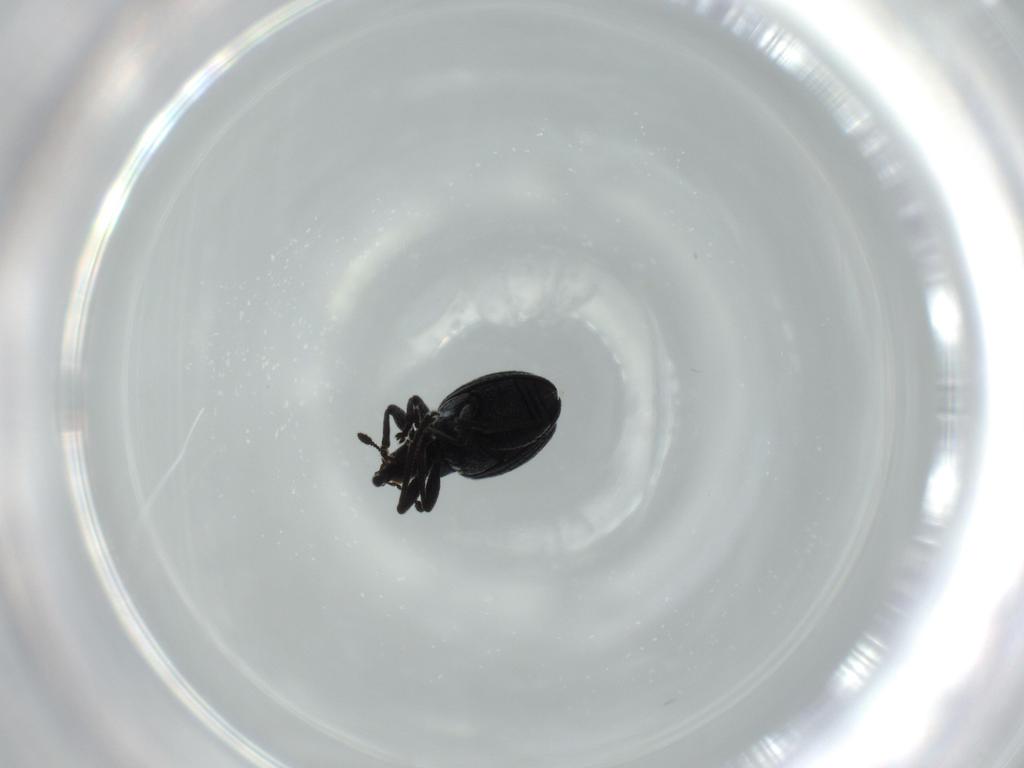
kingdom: Animalia
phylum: Arthropoda
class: Insecta
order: Coleoptera
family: Brentidae
